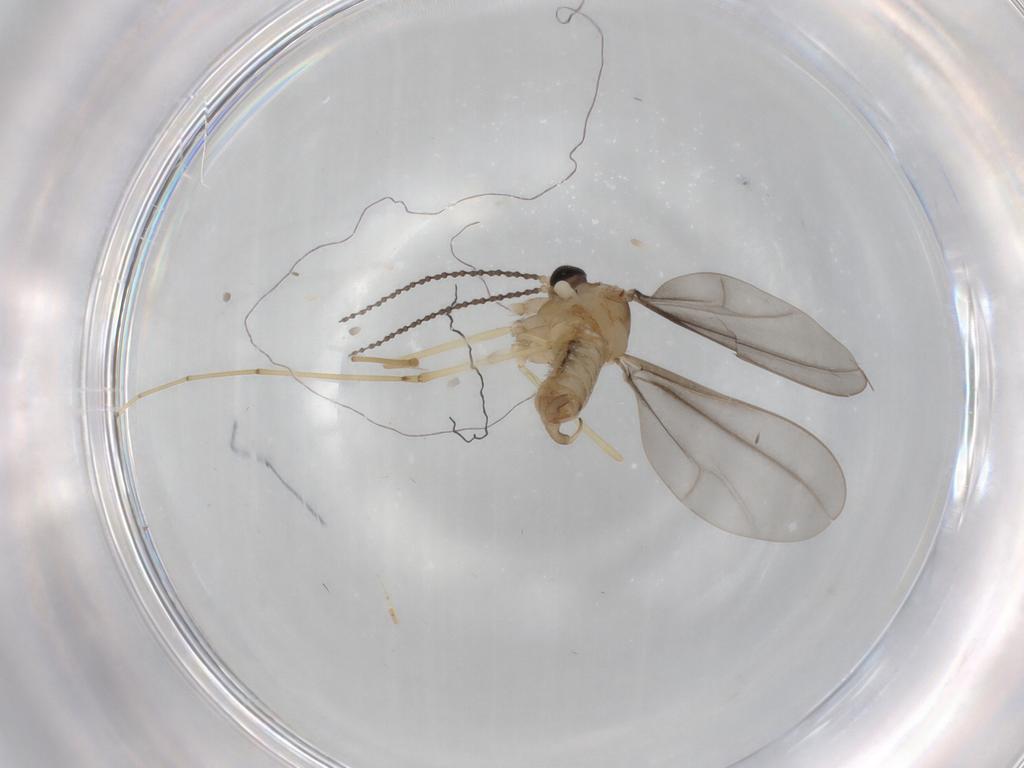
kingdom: Animalia
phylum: Arthropoda
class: Insecta
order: Diptera
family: Cecidomyiidae
